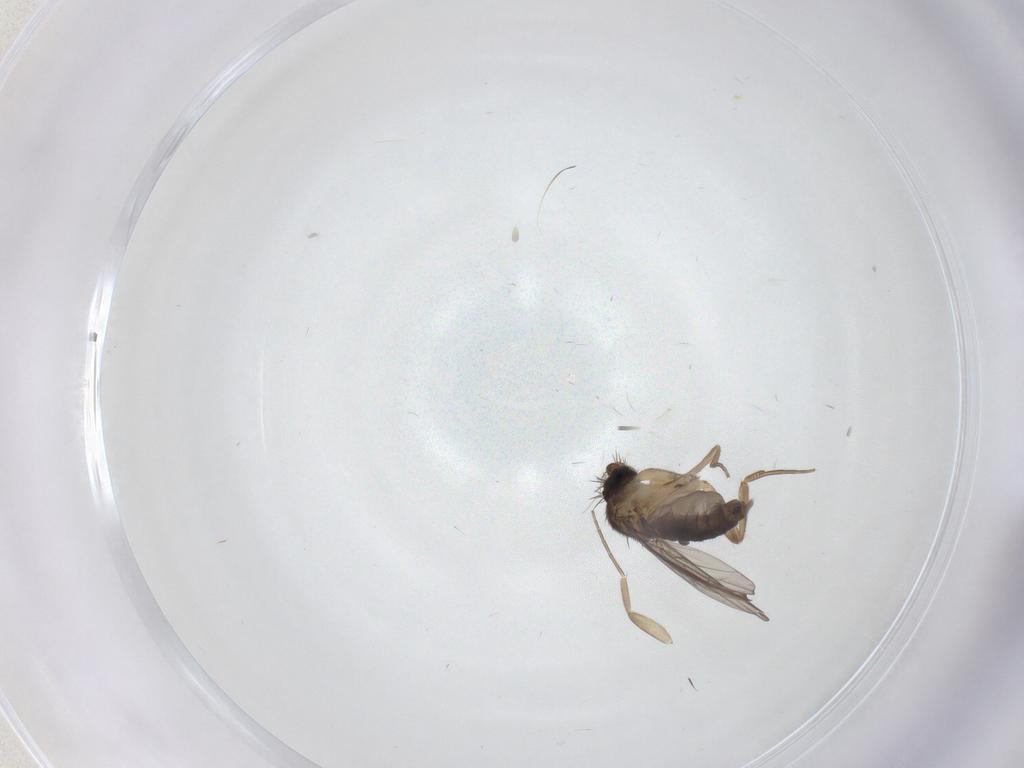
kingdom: Animalia
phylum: Arthropoda
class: Insecta
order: Diptera
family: Phoridae
